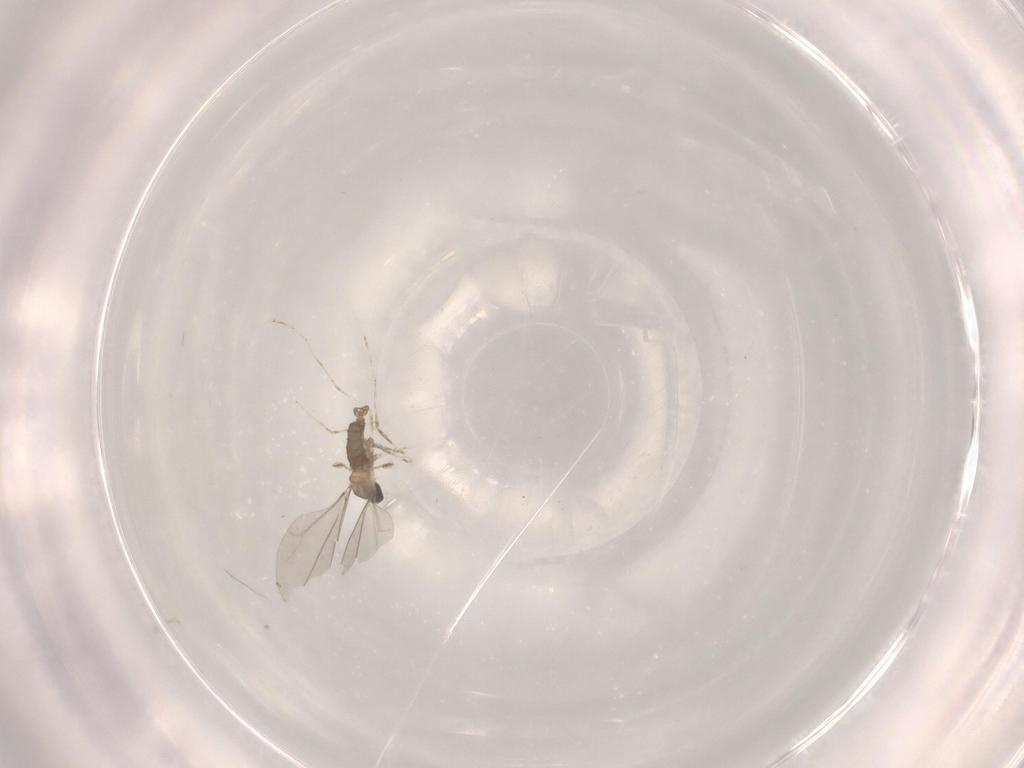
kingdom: Animalia
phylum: Arthropoda
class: Insecta
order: Diptera
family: Cecidomyiidae
